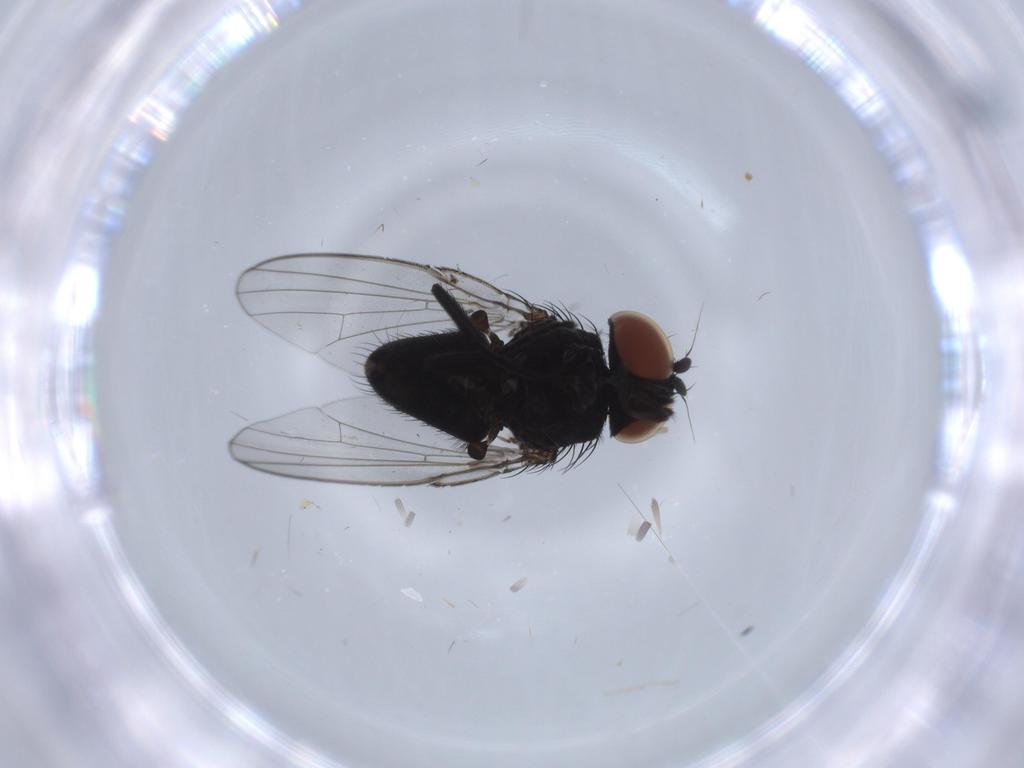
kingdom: Animalia
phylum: Arthropoda
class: Insecta
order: Diptera
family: Milichiidae
